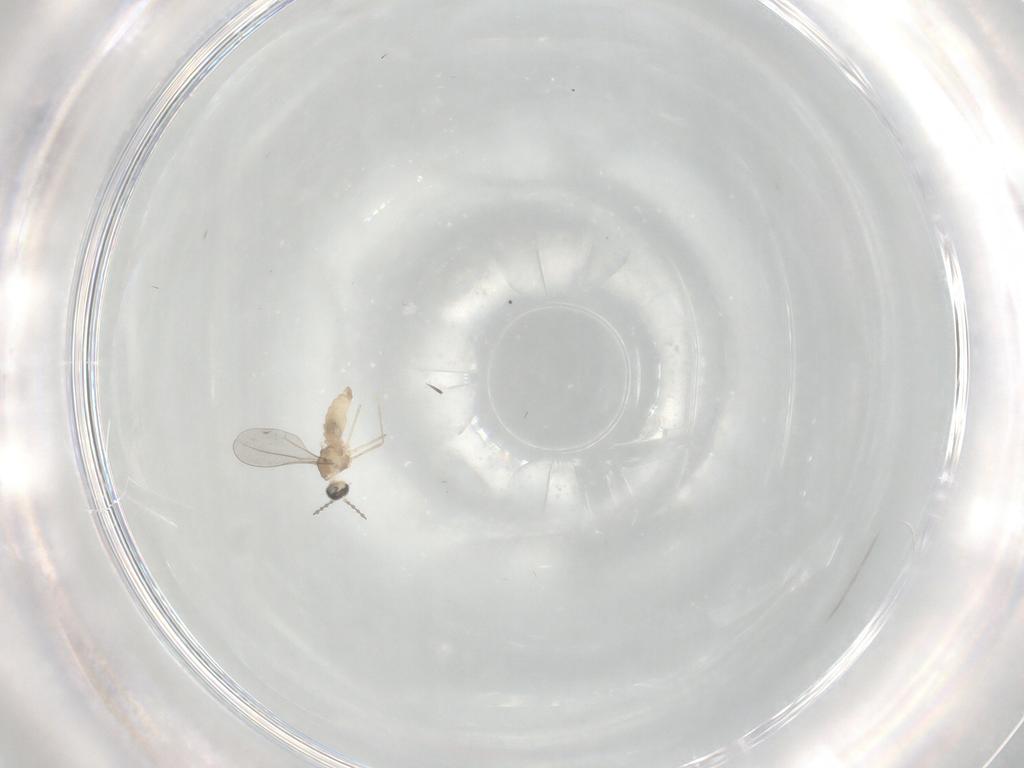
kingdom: Animalia
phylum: Arthropoda
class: Insecta
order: Diptera
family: Cecidomyiidae
